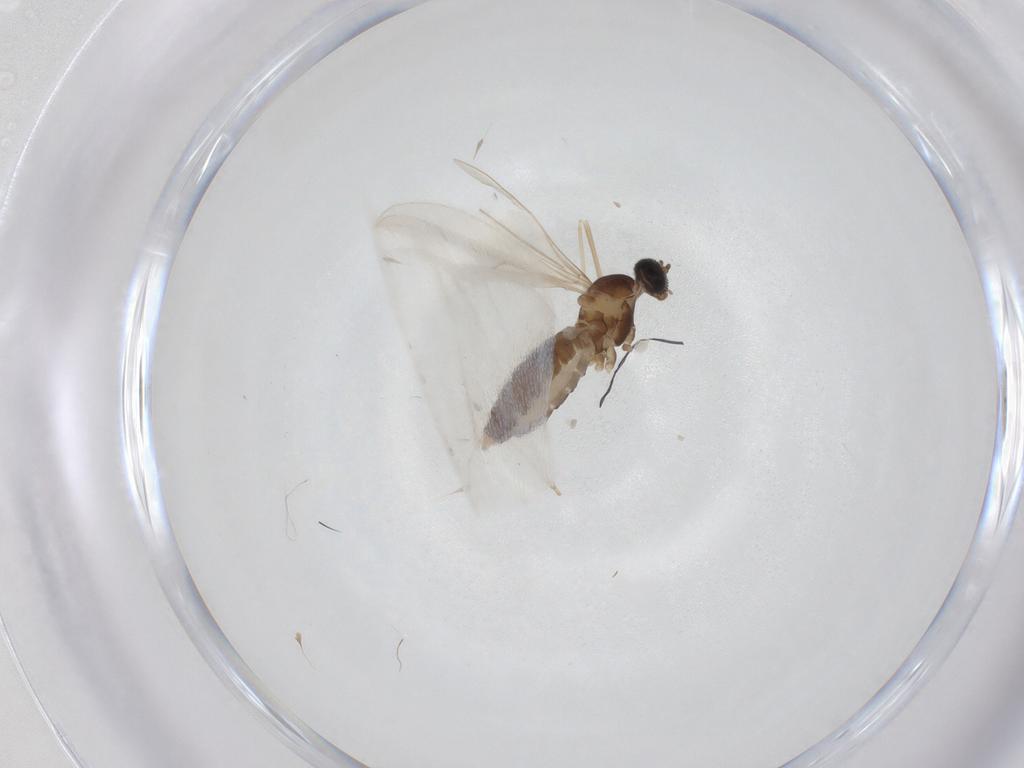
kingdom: Animalia
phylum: Arthropoda
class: Insecta
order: Diptera
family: Cecidomyiidae
